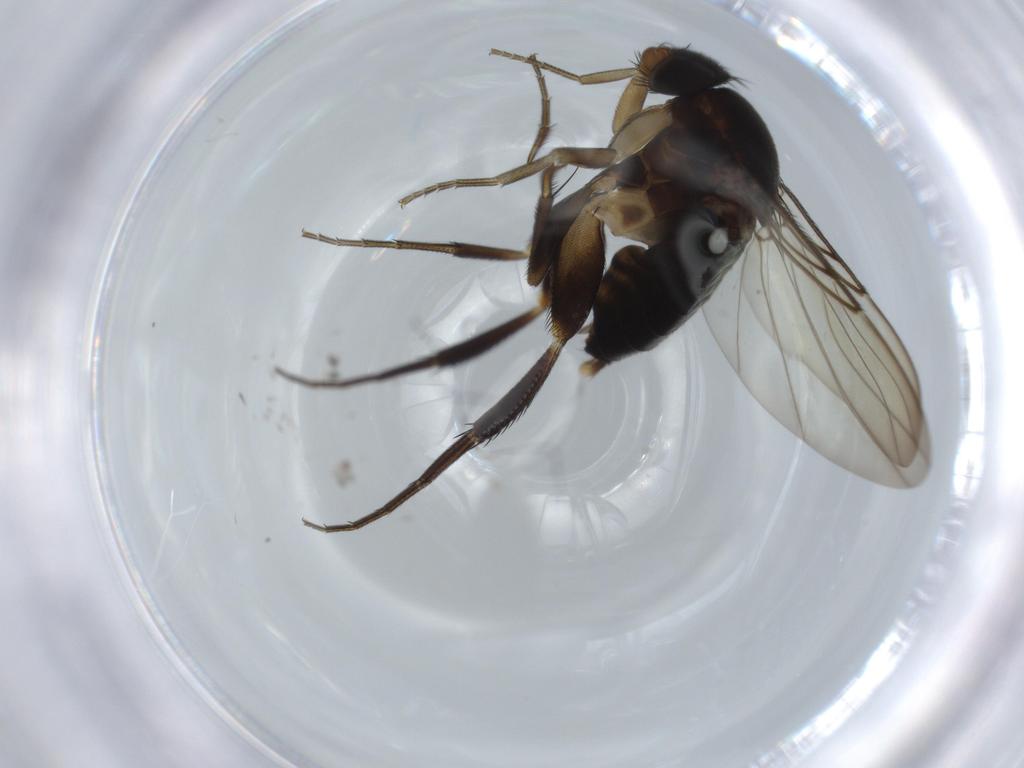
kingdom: Animalia
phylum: Arthropoda
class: Insecta
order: Diptera
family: Phoridae
